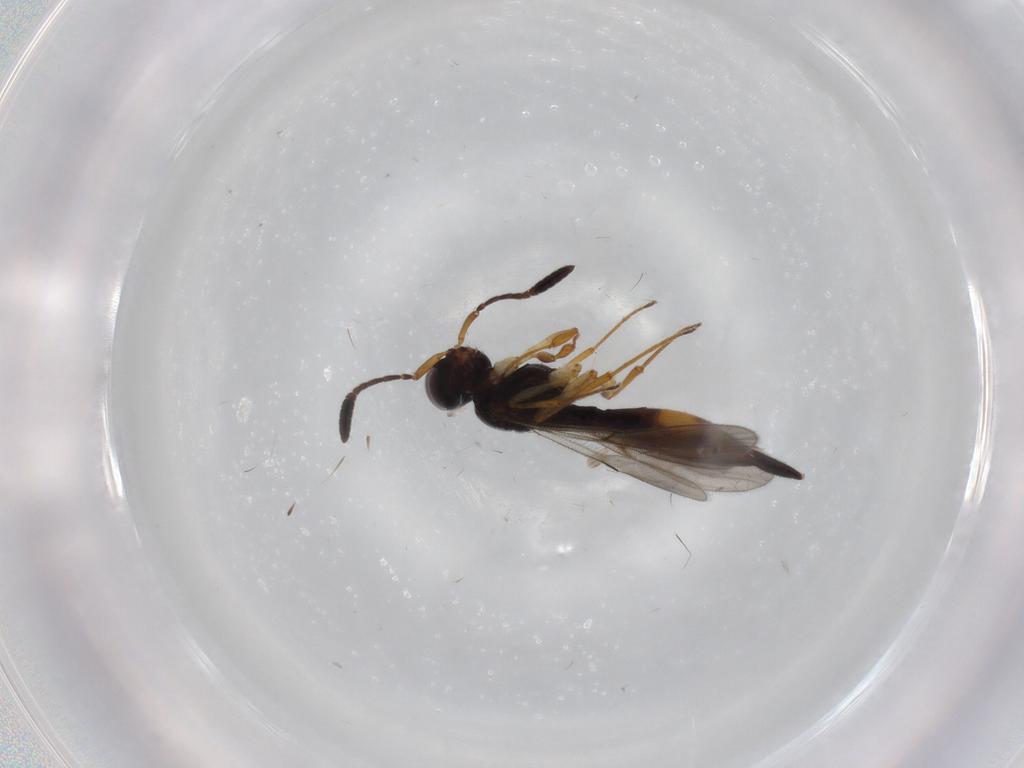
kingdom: Animalia
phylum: Arthropoda
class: Insecta
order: Hymenoptera
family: Scelionidae
